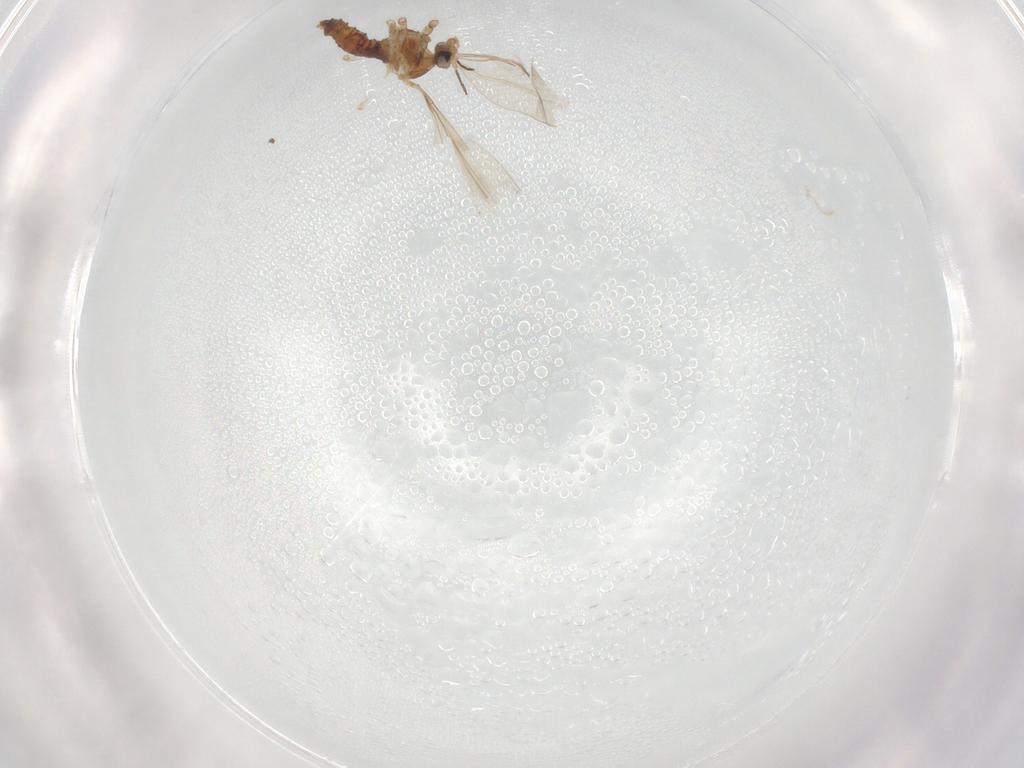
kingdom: Animalia
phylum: Arthropoda
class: Insecta
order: Diptera
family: Cecidomyiidae
